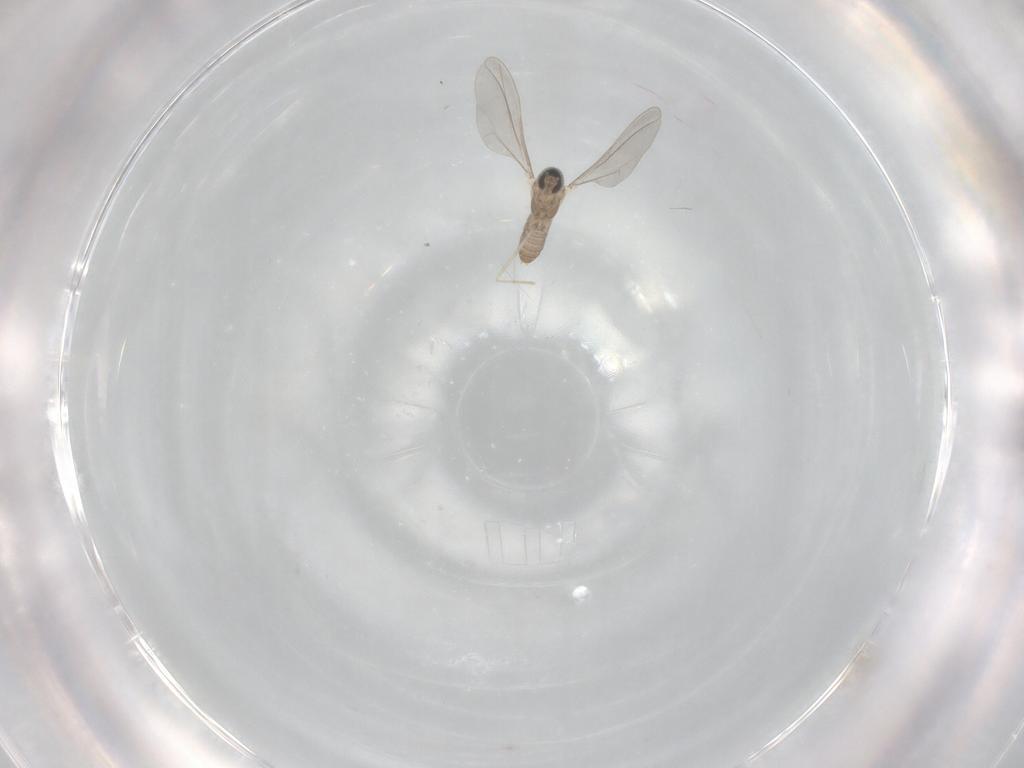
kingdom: Animalia
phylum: Arthropoda
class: Insecta
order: Diptera
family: Cecidomyiidae
